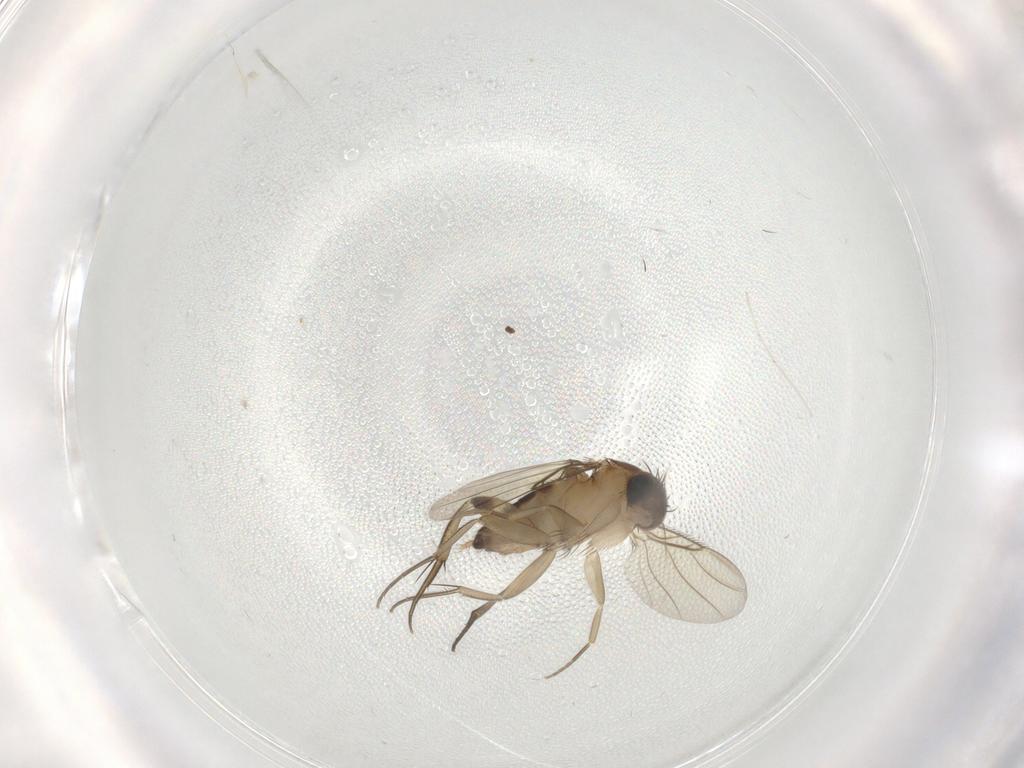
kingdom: Animalia
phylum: Arthropoda
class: Insecta
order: Diptera
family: Phoridae
